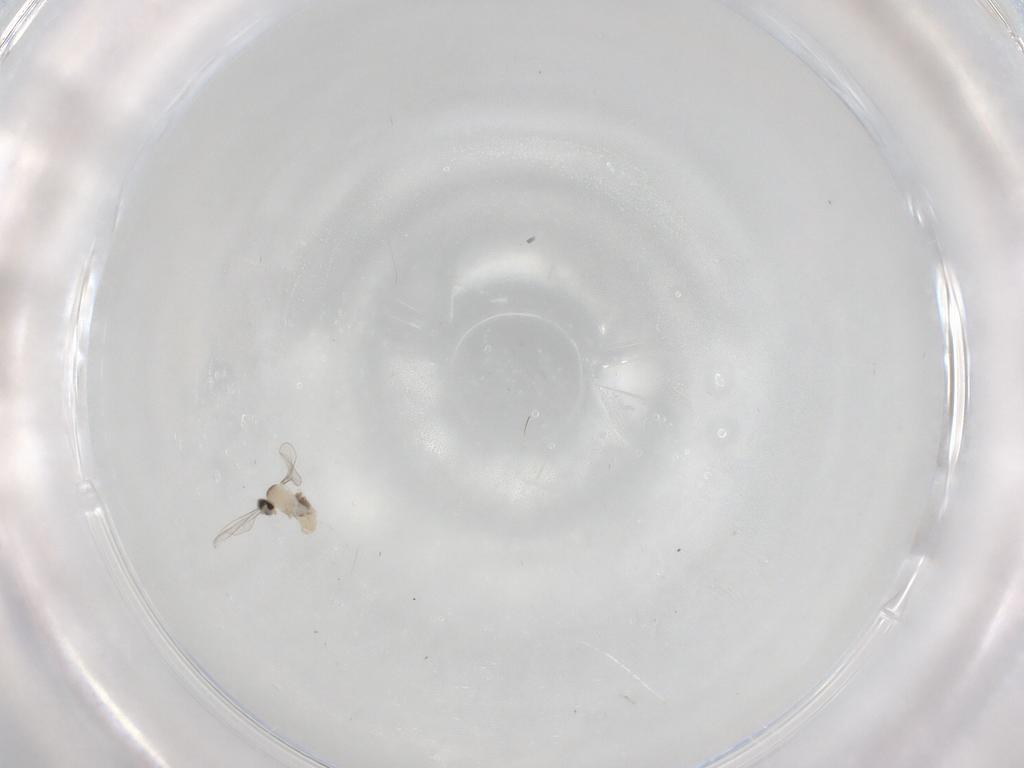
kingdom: Animalia
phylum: Arthropoda
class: Insecta
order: Diptera
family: Cecidomyiidae
